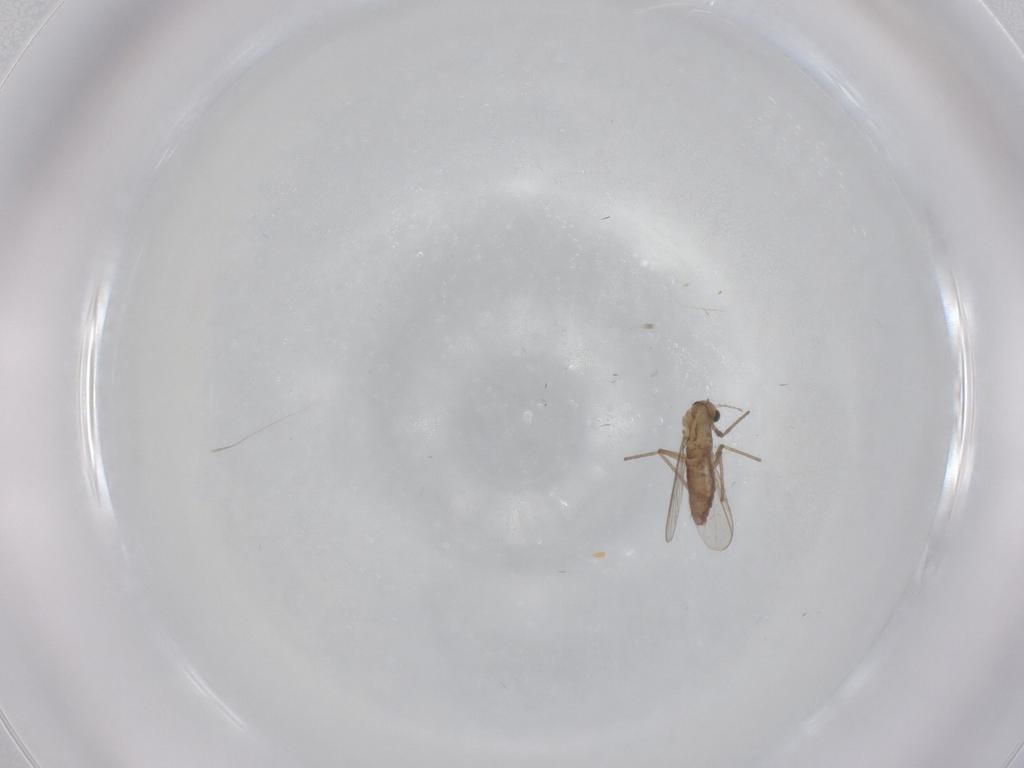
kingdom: Animalia
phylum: Arthropoda
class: Insecta
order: Diptera
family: Chironomidae
